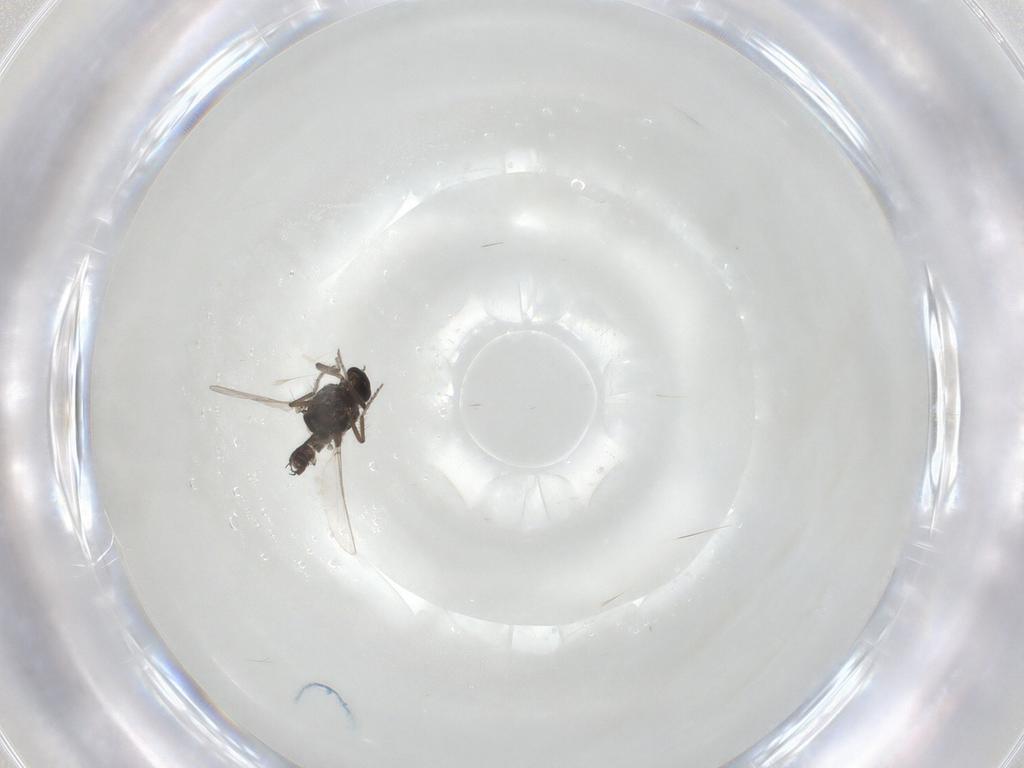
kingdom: Animalia
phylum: Arthropoda
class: Insecta
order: Diptera
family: Ceratopogonidae
